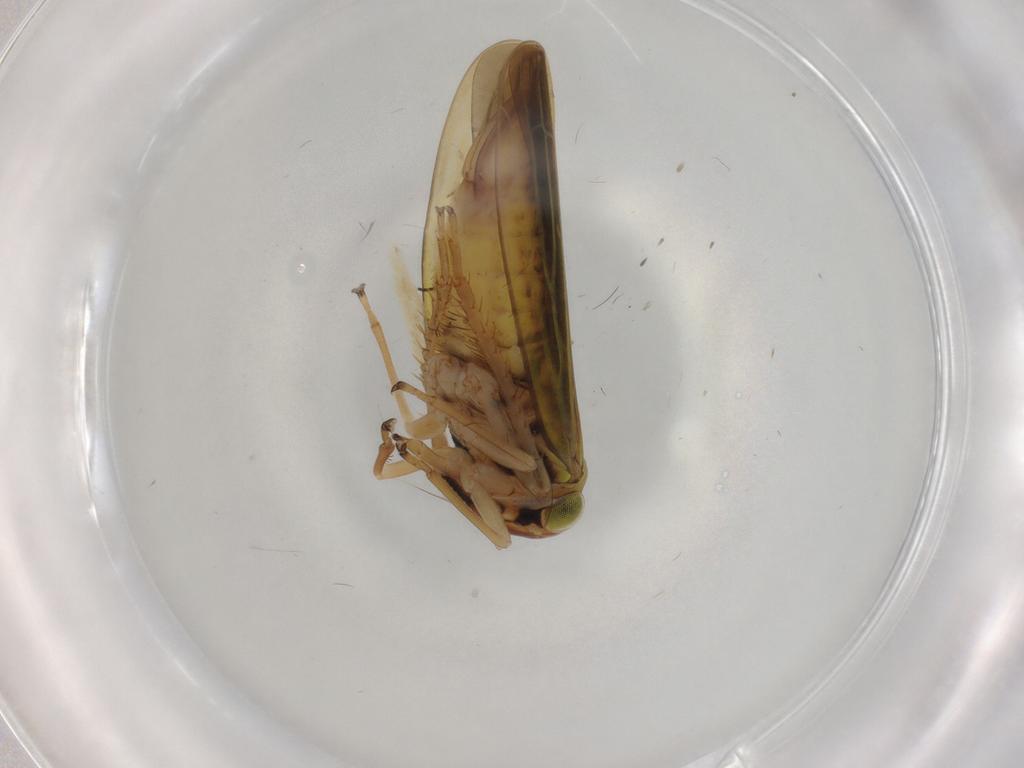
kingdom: Animalia
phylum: Arthropoda
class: Insecta
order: Hemiptera
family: Cicadellidae
